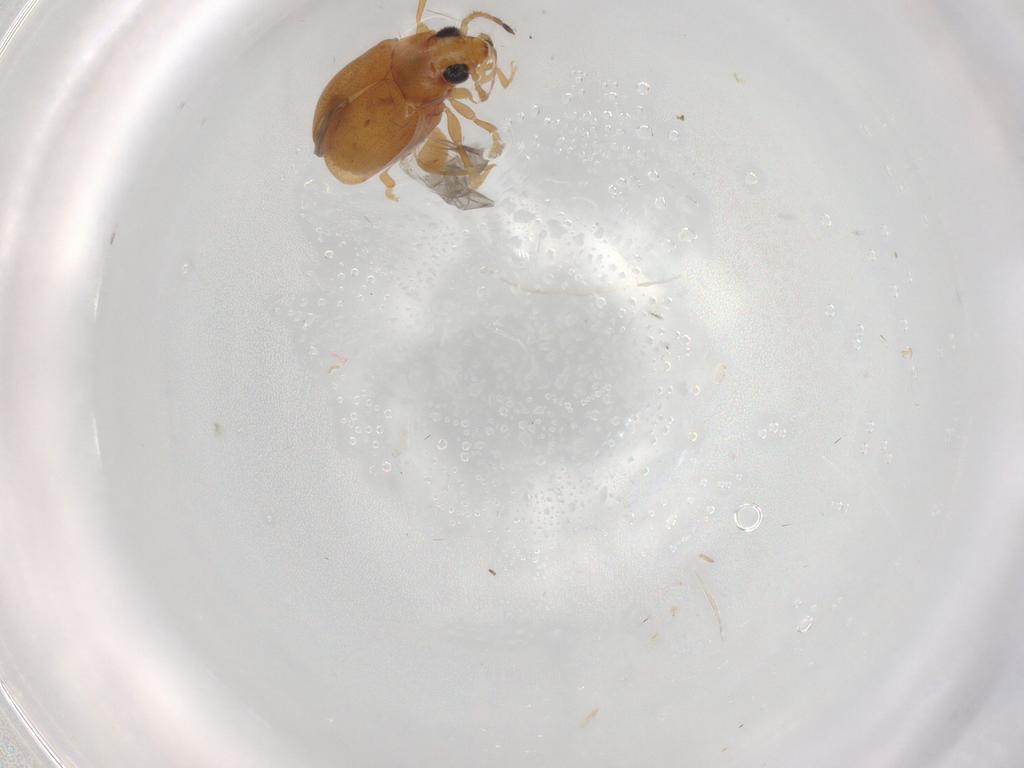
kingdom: Animalia
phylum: Arthropoda
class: Insecta
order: Coleoptera
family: Chrysomelidae
